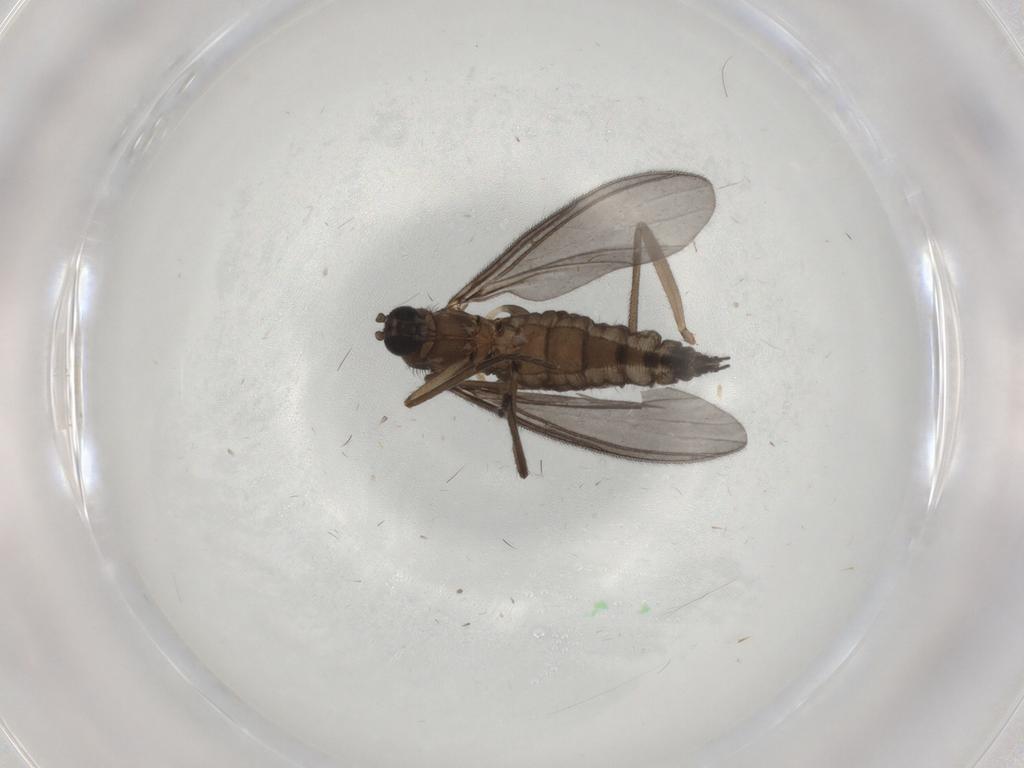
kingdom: Animalia
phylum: Arthropoda
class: Insecta
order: Diptera
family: Sciaridae
